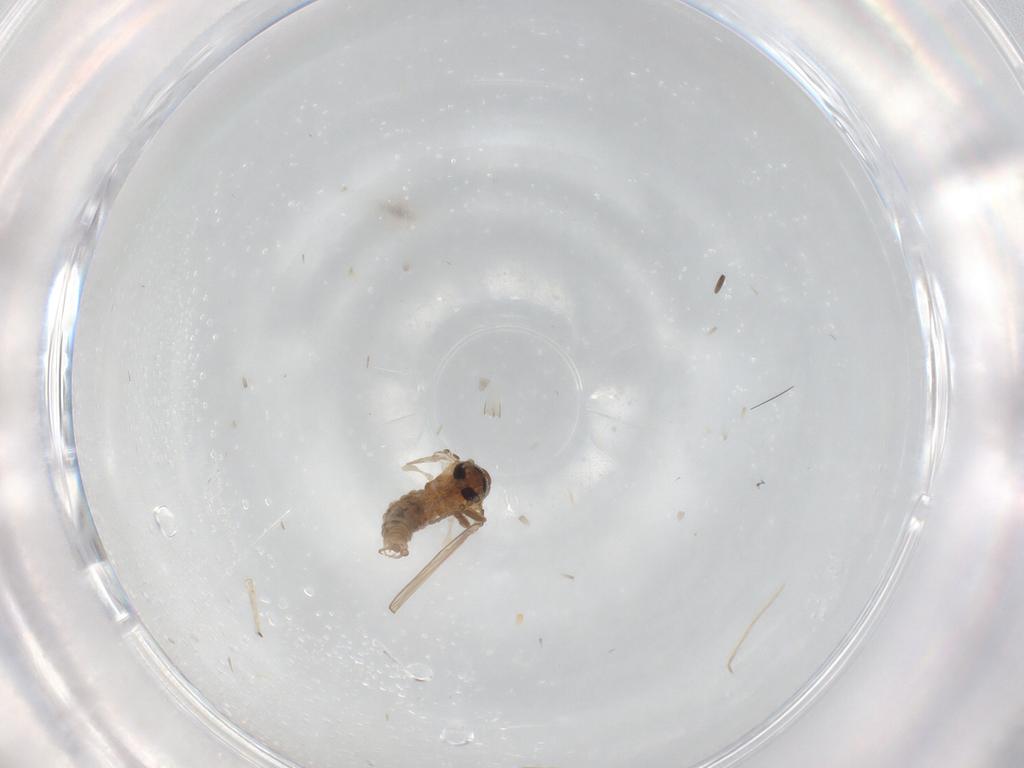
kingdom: Animalia
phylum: Arthropoda
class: Insecta
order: Diptera
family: Psychodidae
